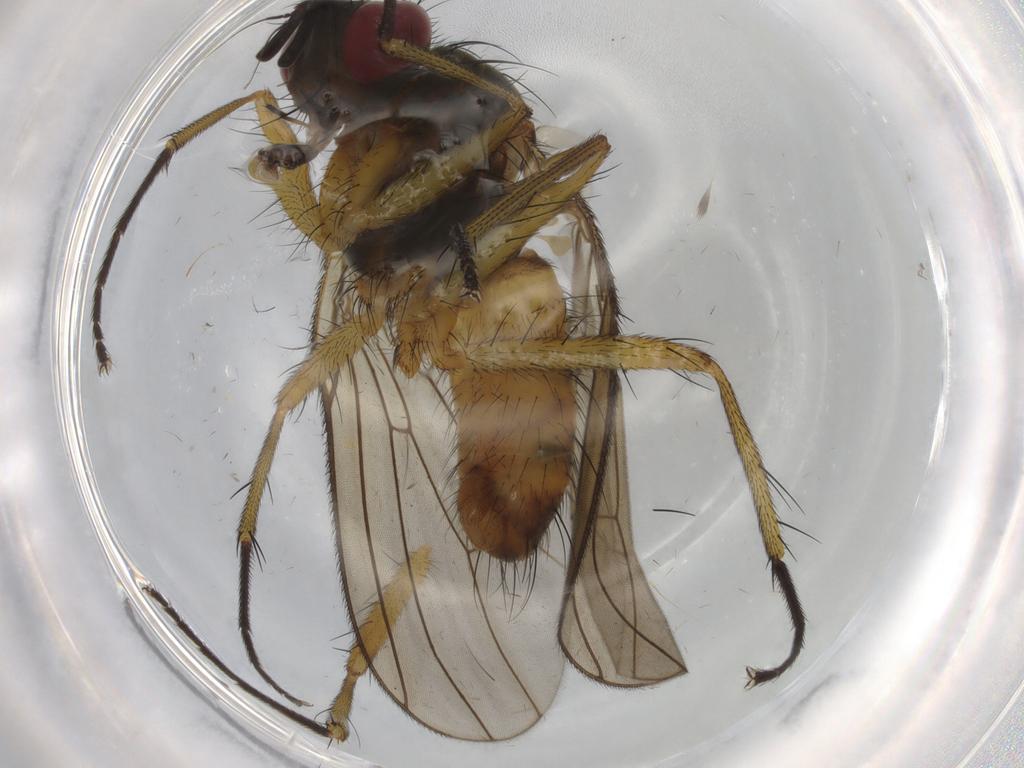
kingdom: Animalia
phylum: Arthropoda
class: Insecta
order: Diptera
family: Muscidae
